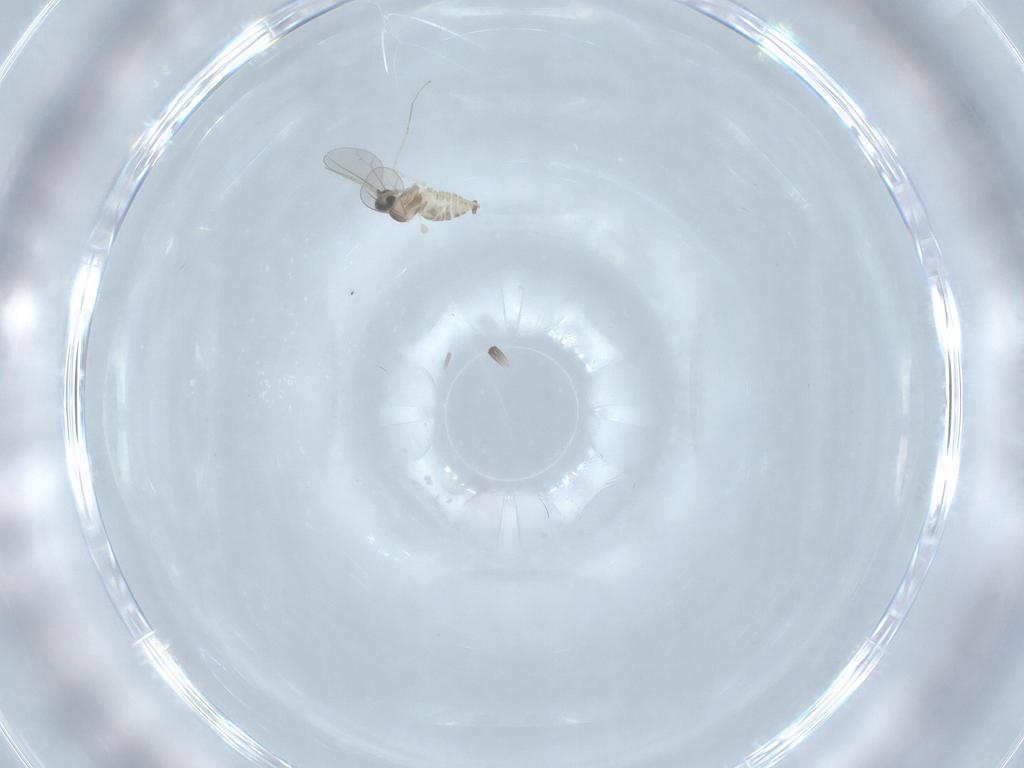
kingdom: Animalia
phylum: Arthropoda
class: Insecta
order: Diptera
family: Cecidomyiidae
